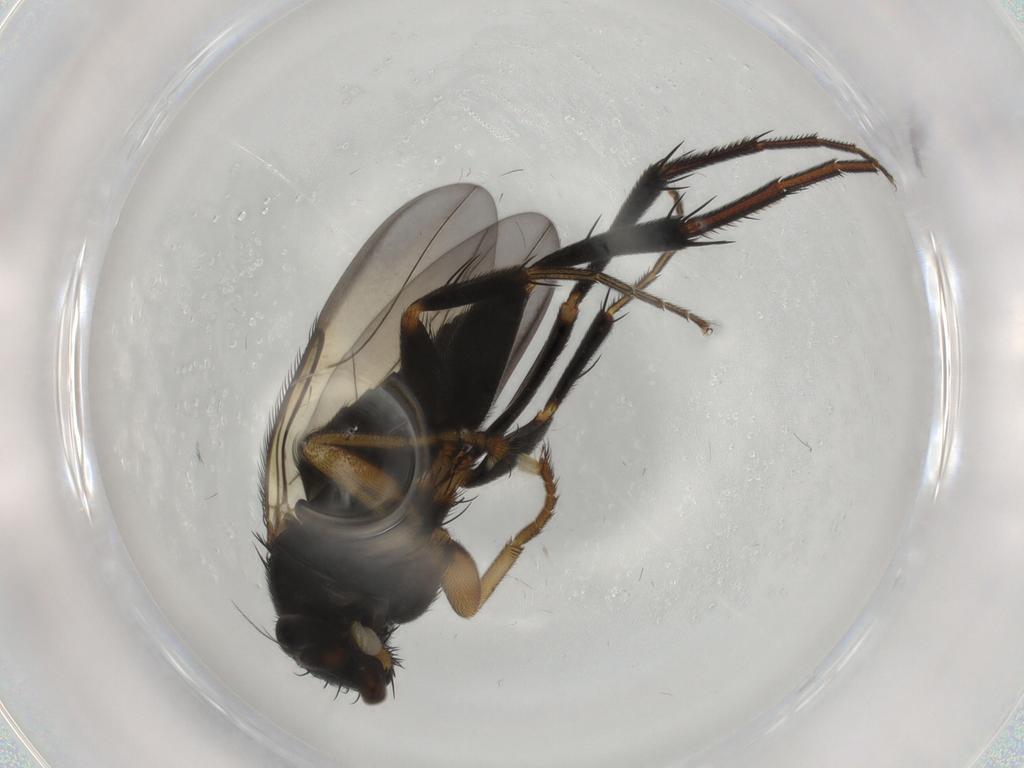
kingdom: Animalia
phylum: Arthropoda
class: Insecta
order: Diptera
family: Phoridae
